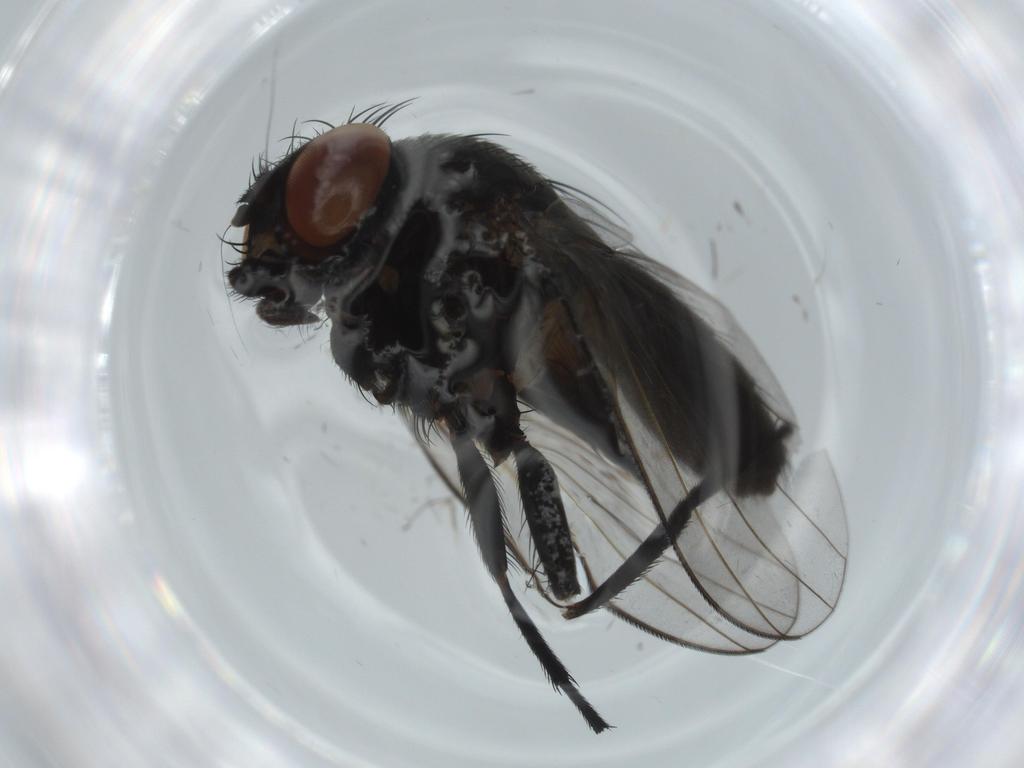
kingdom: Animalia
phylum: Arthropoda
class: Insecta
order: Diptera
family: Milichiidae
